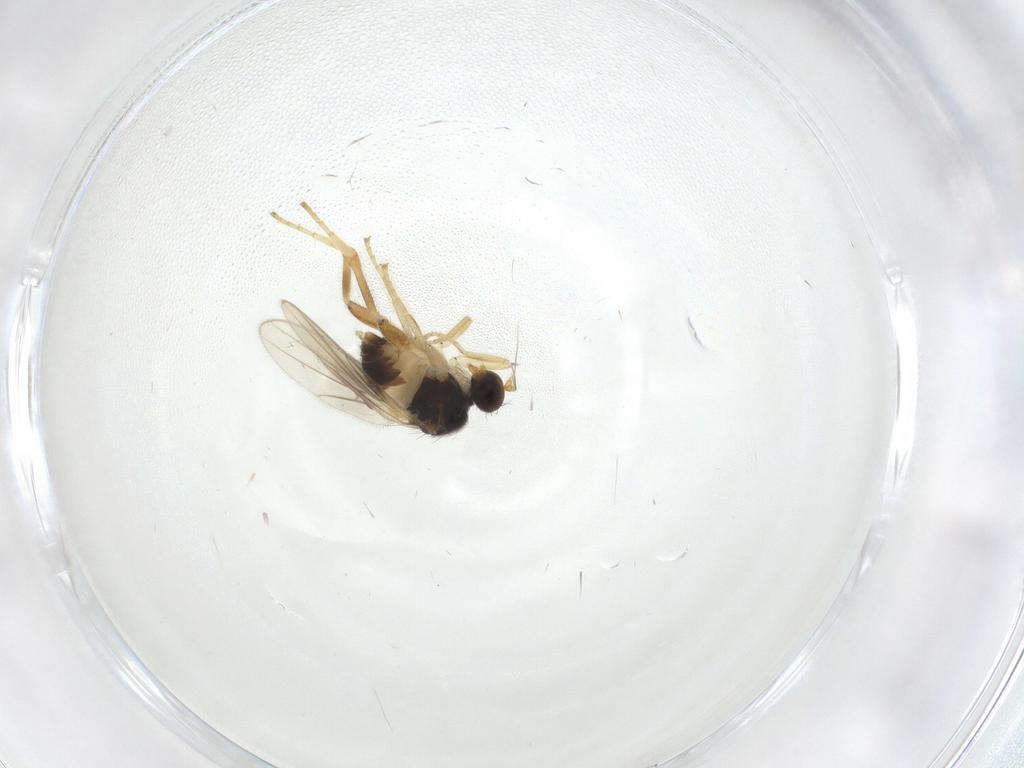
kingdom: Animalia
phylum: Arthropoda
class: Insecta
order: Diptera
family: Hybotidae
